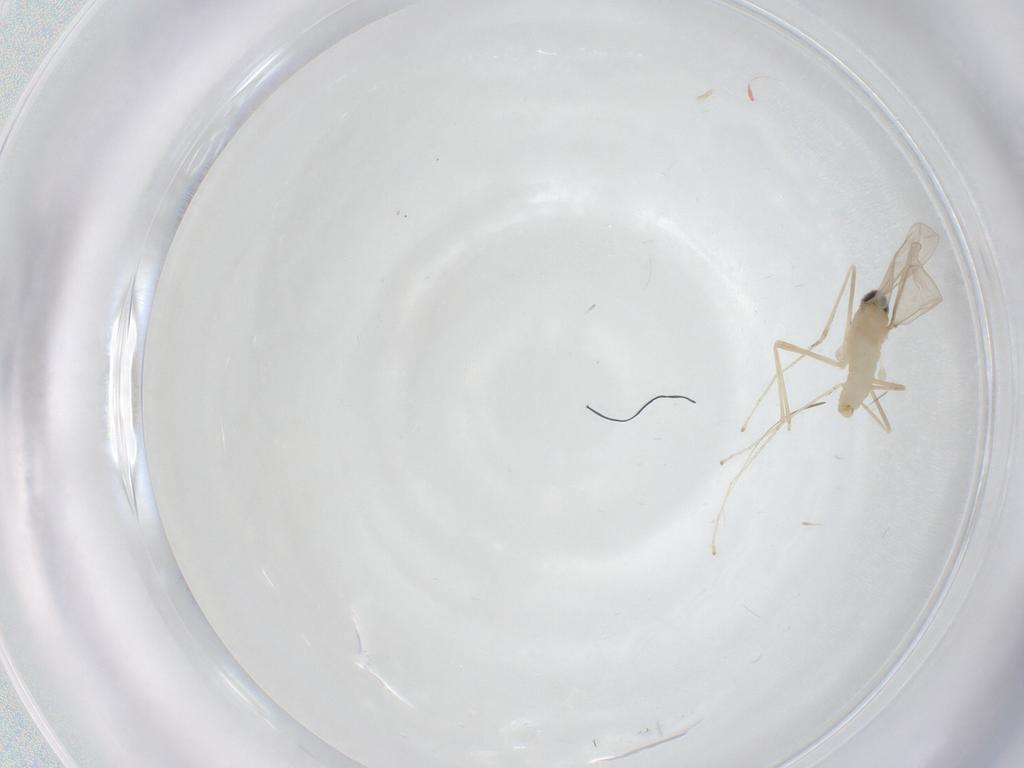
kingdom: Animalia
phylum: Arthropoda
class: Insecta
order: Diptera
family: Cecidomyiidae
